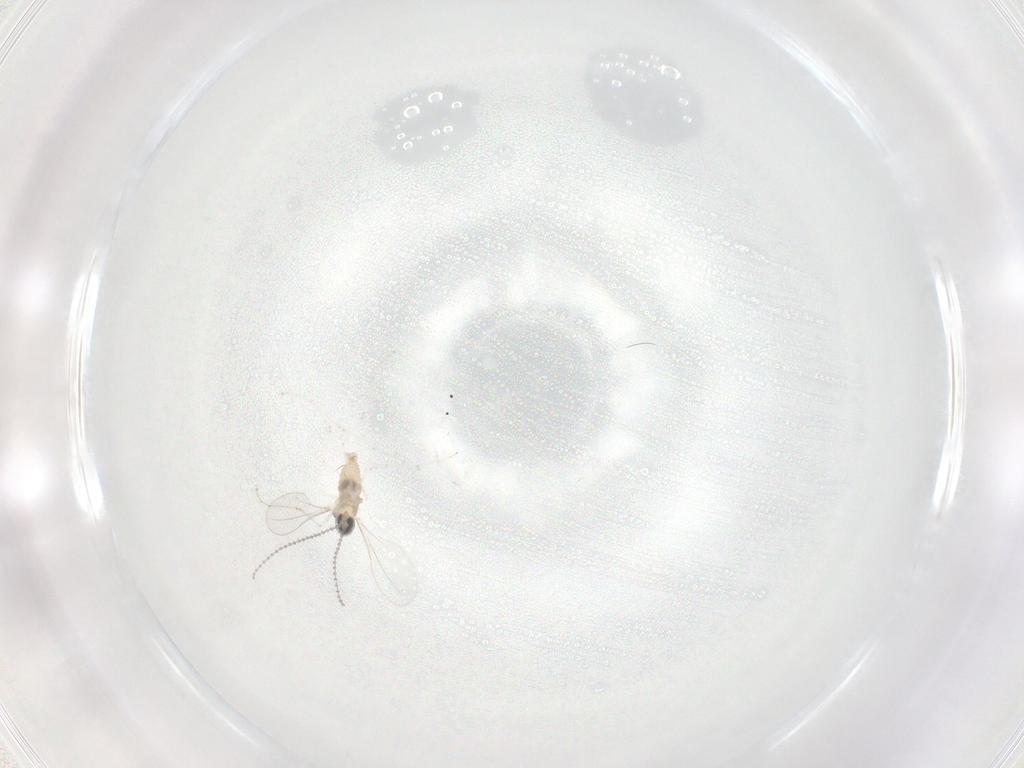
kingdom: Animalia
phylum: Arthropoda
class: Insecta
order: Diptera
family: Cecidomyiidae
